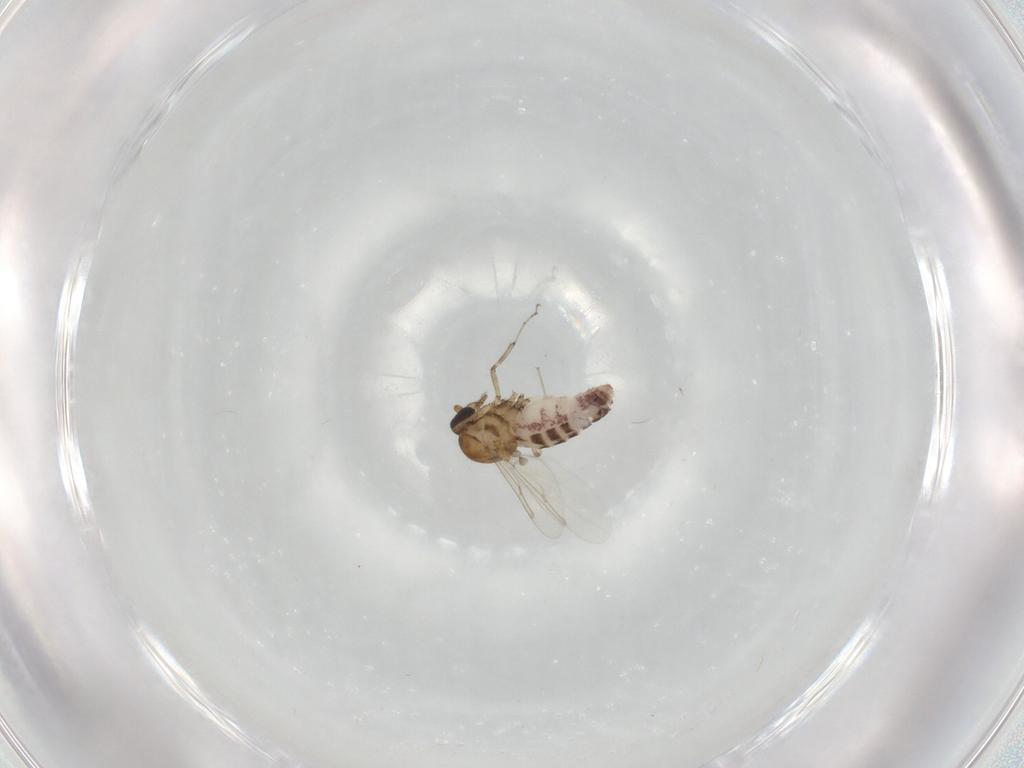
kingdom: Animalia
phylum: Arthropoda
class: Insecta
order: Diptera
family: Ceratopogonidae
